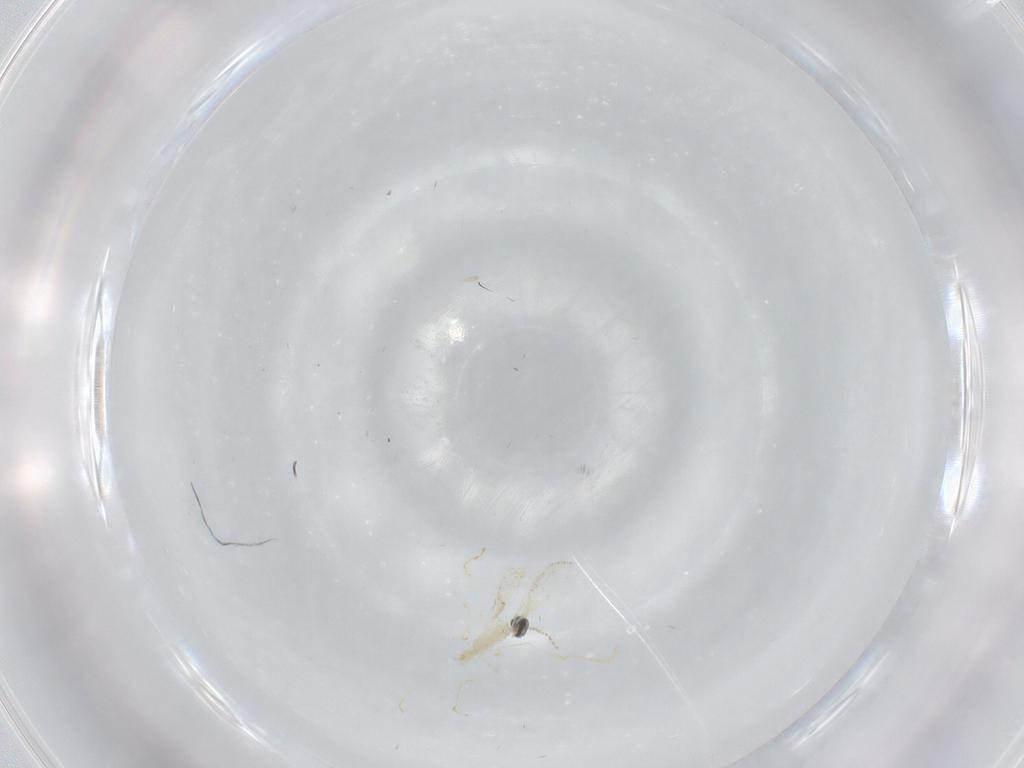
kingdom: Animalia
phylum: Arthropoda
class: Insecta
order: Diptera
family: Cecidomyiidae
